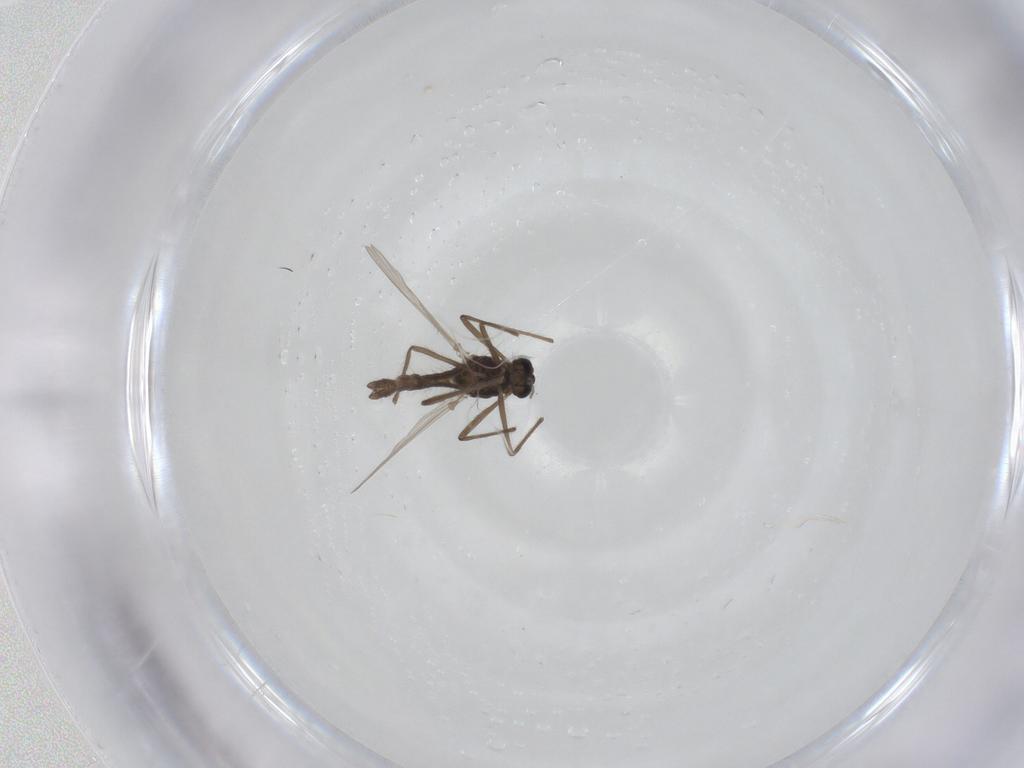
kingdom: Animalia
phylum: Arthropoda
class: Insecta
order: Diptera
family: Chironomidae
